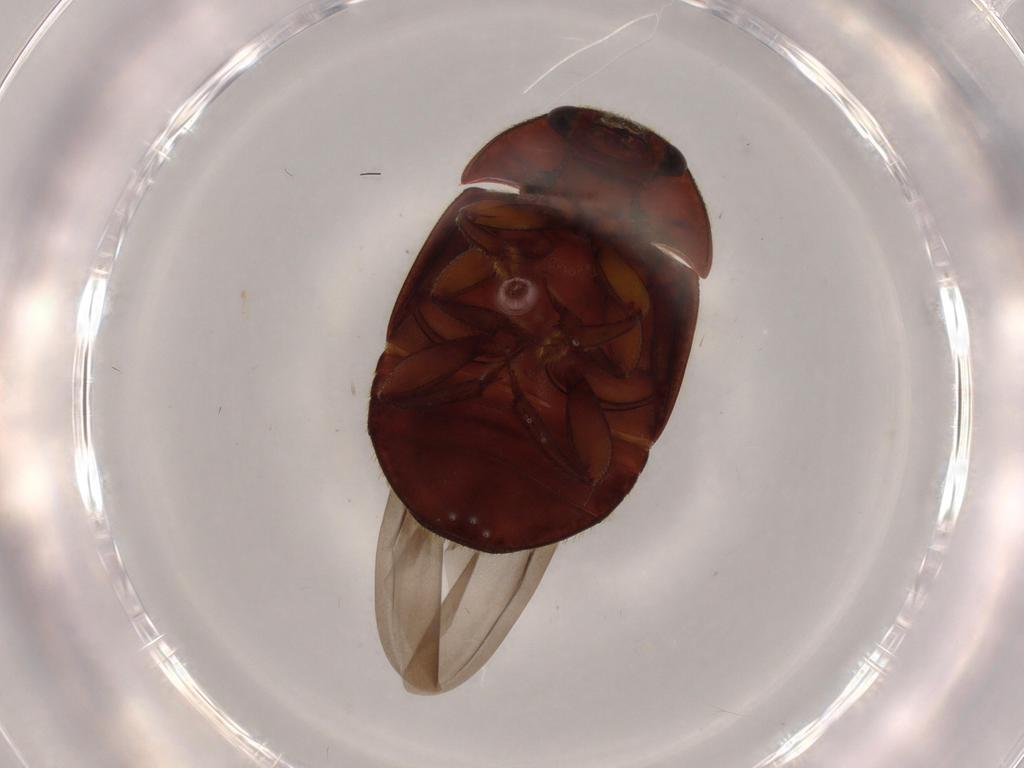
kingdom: Animalia
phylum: Arthropoda
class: Insecta
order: Coleoptera
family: Nitidulidae
